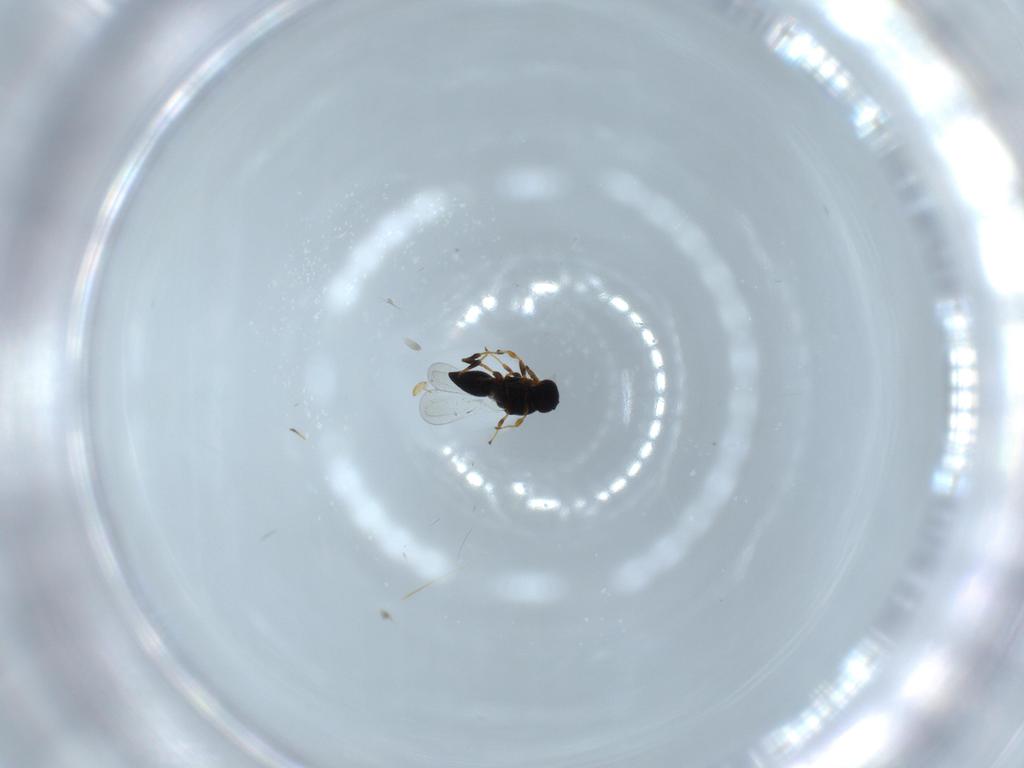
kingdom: Animalia
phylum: Arthropoda
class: Insecta
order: Hymenoptera
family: Platygastridae
